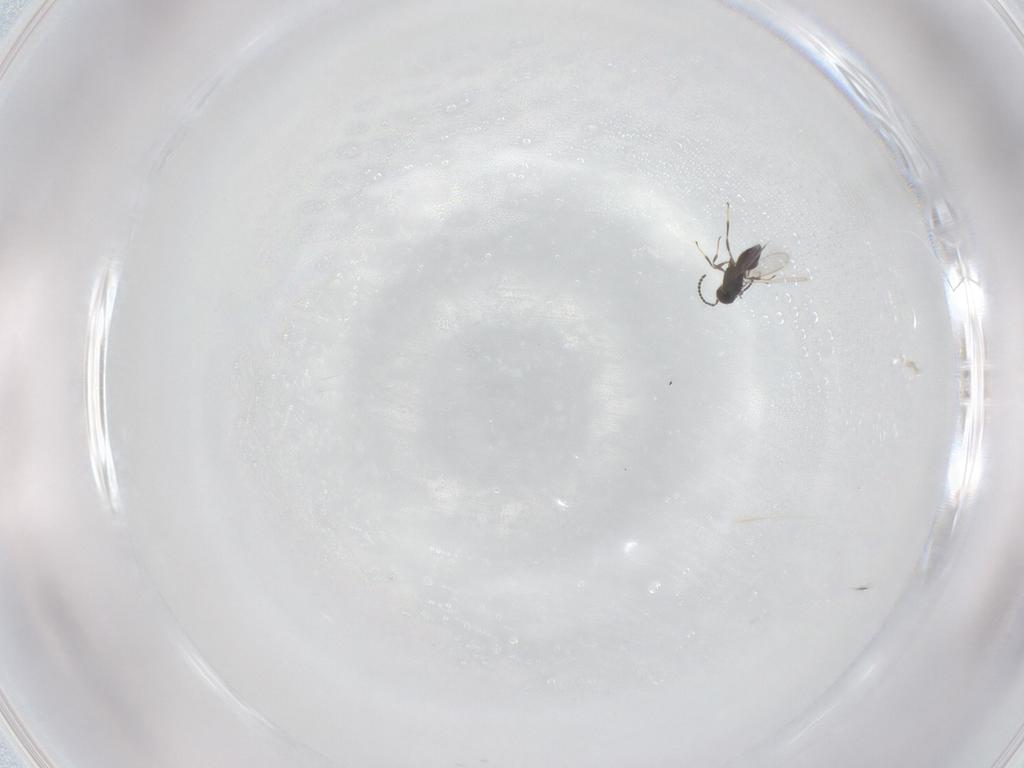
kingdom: Animalia
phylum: Arthropoda
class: Insecta
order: Hymenoptera
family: Scelionidae
